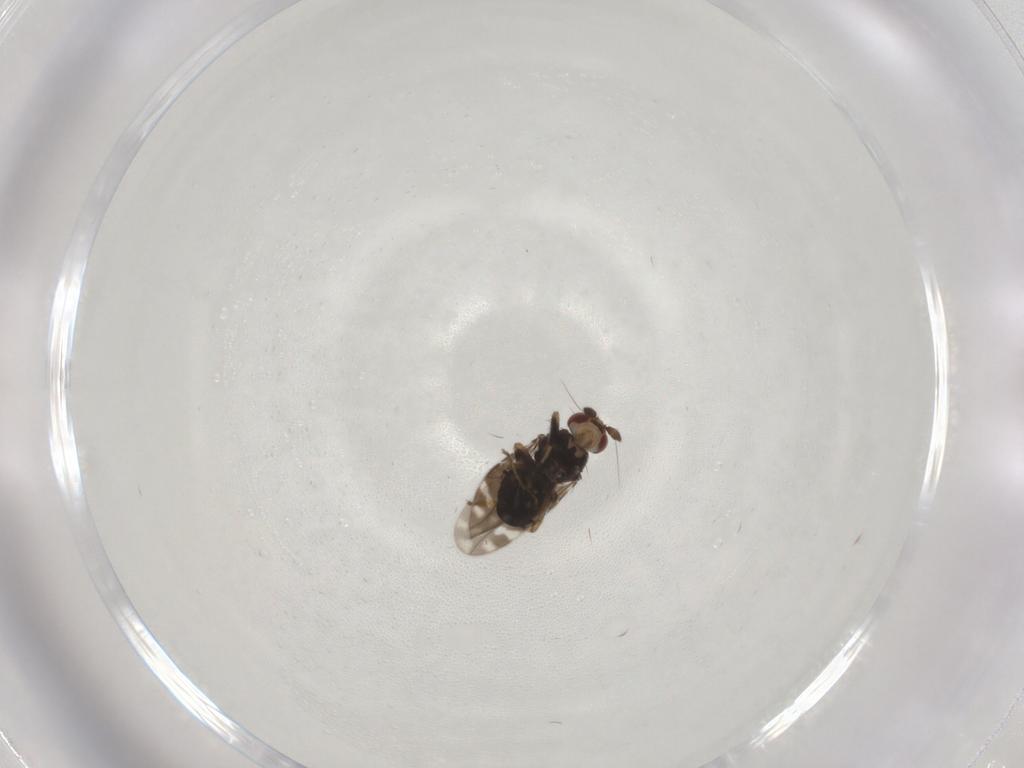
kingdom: Animalia
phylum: Arthropoda
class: Insecta
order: Diptera
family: Sphaeroceridae
